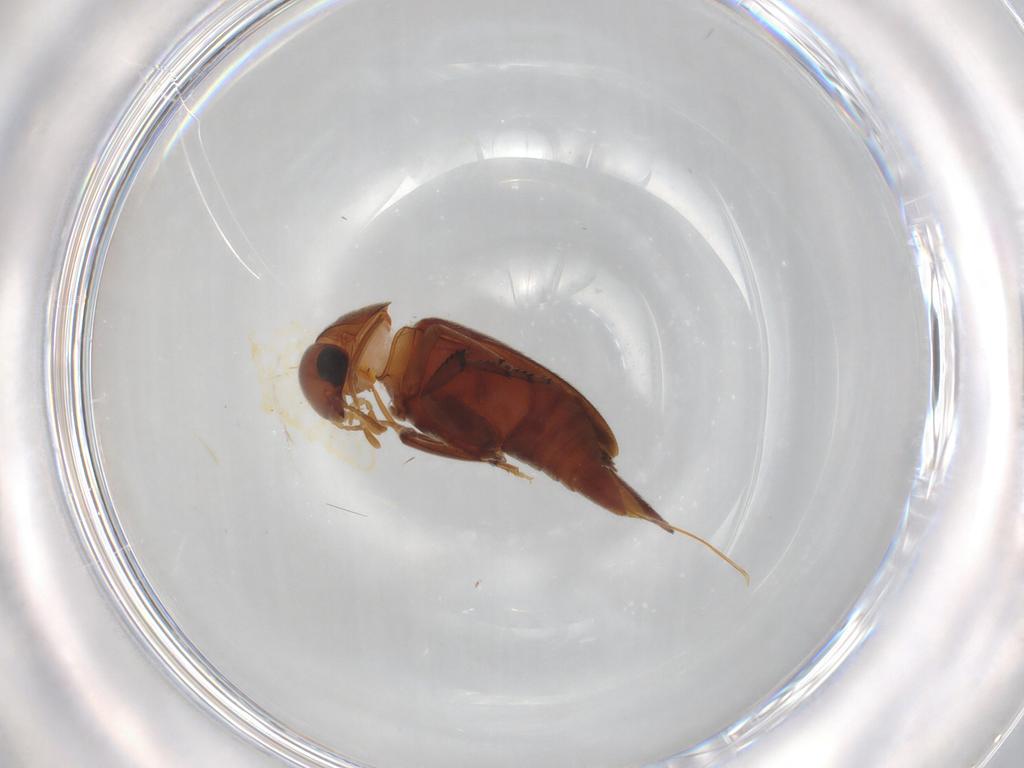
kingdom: Animalia
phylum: Arthropoda
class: Insecta
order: Coleoptera
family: Mordellidae
